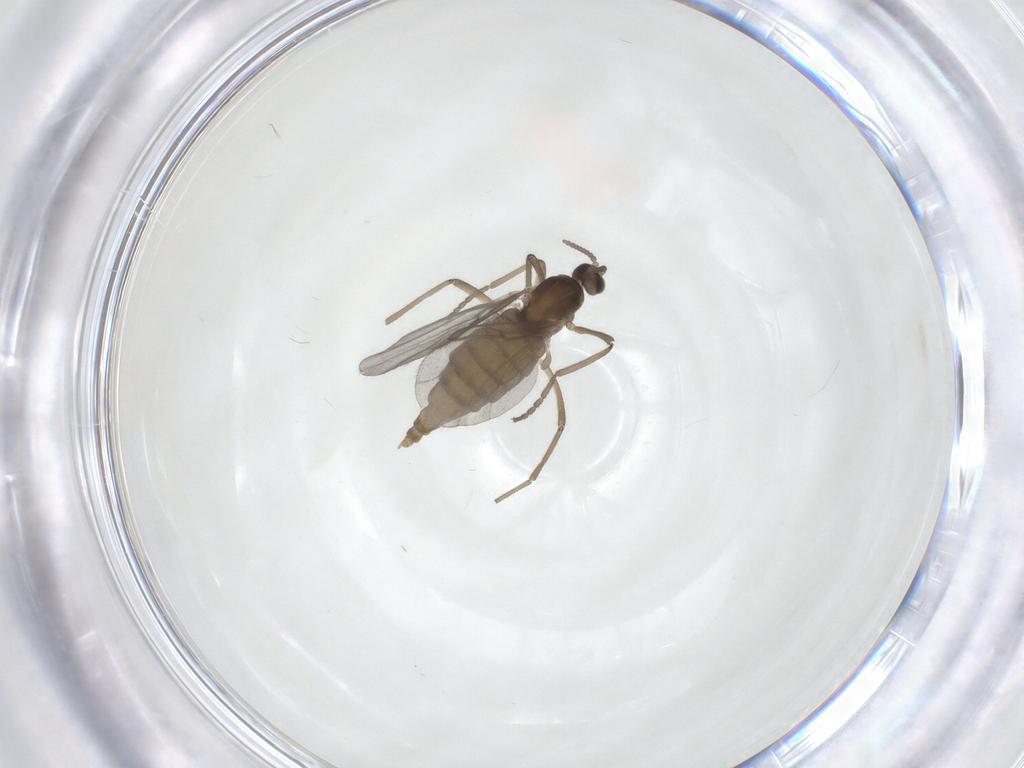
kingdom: Animalia
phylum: Arthropoda
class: Insecta
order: Diptera
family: Cecidomyiidae
